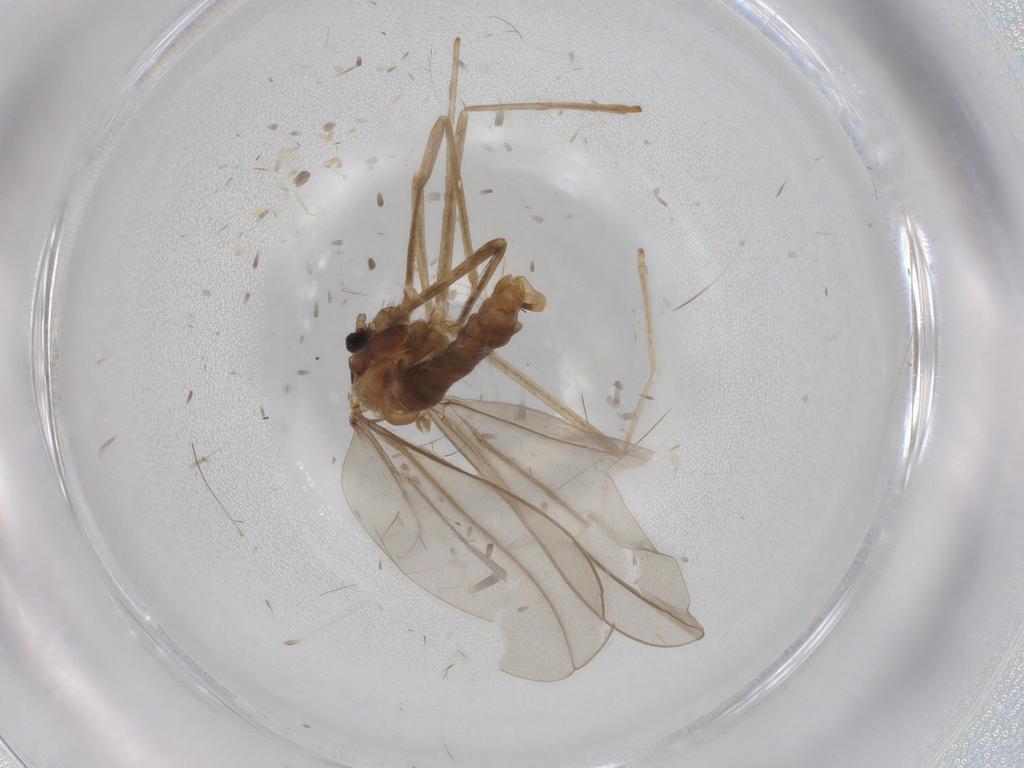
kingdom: Animalia
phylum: Arthropoda
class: Insecta
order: Diptera
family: Cecidomyiidae
